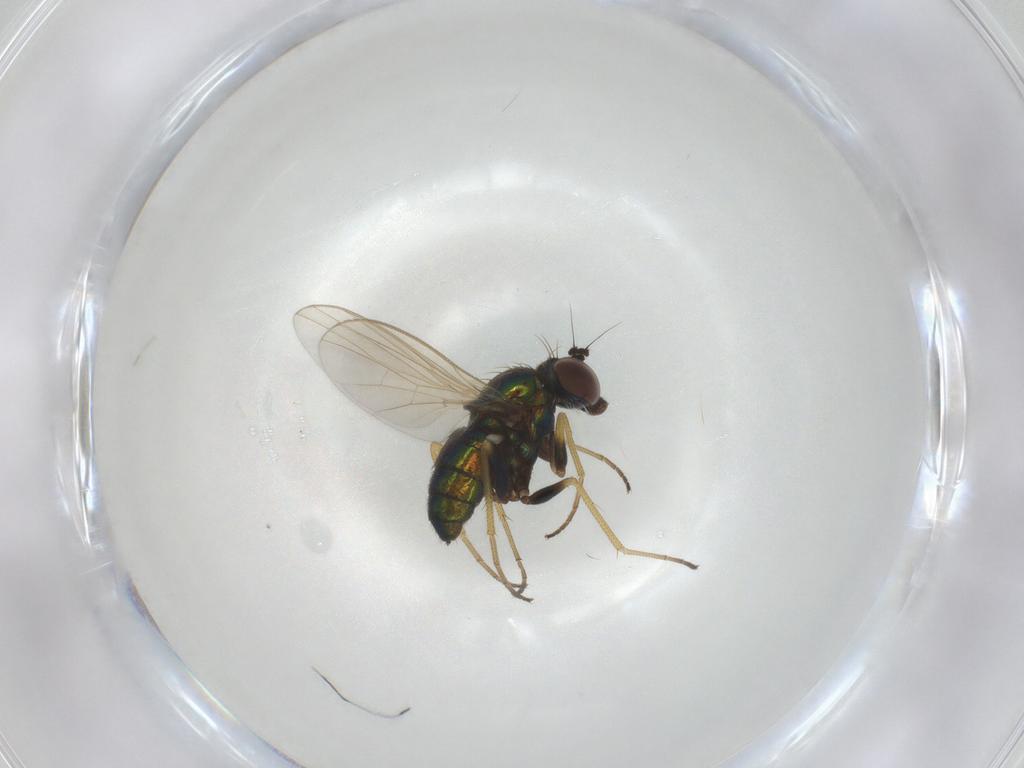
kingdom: Animalia
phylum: Arthropoda
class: Insecta
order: Diptera
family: Dolichopodidae
